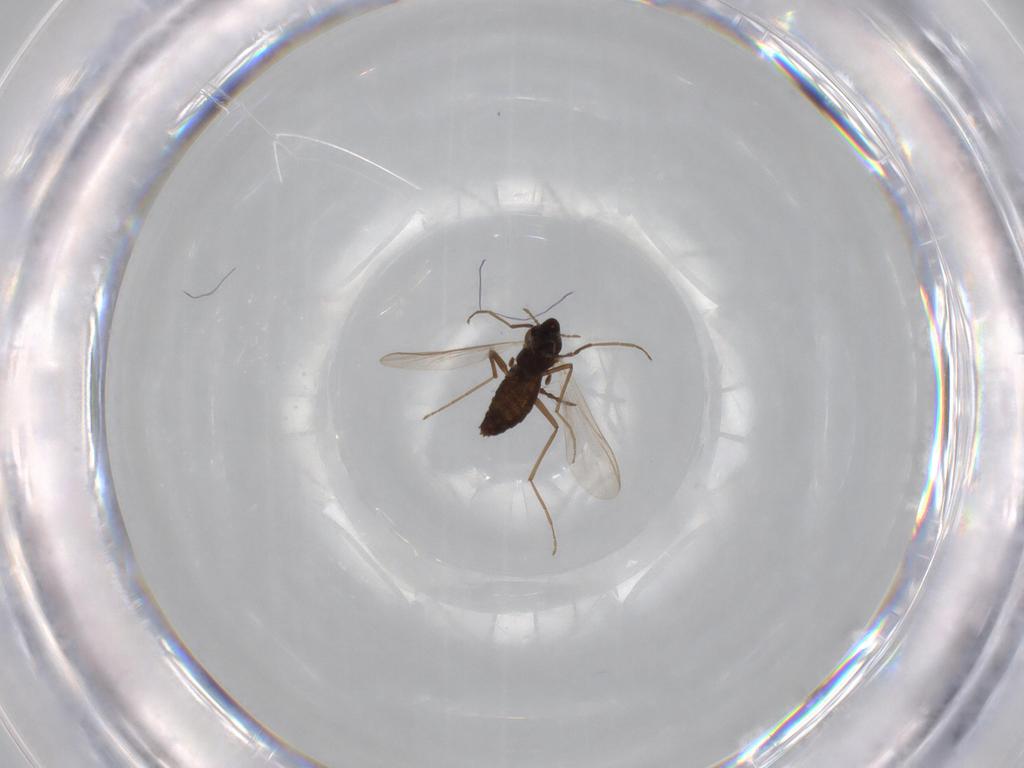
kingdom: Animalia
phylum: Arthropoda
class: Insecta
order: Diptera
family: Chironomidae
